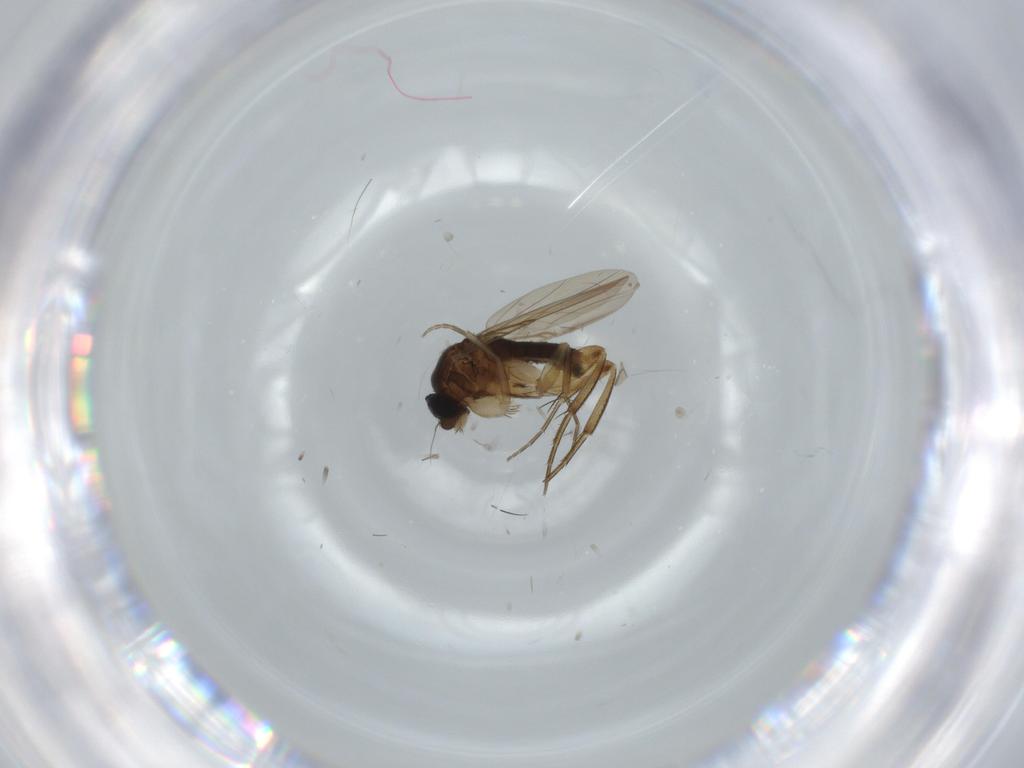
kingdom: Animalia
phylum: Arthropoda
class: Insecta
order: Diptera
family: Phoridae
